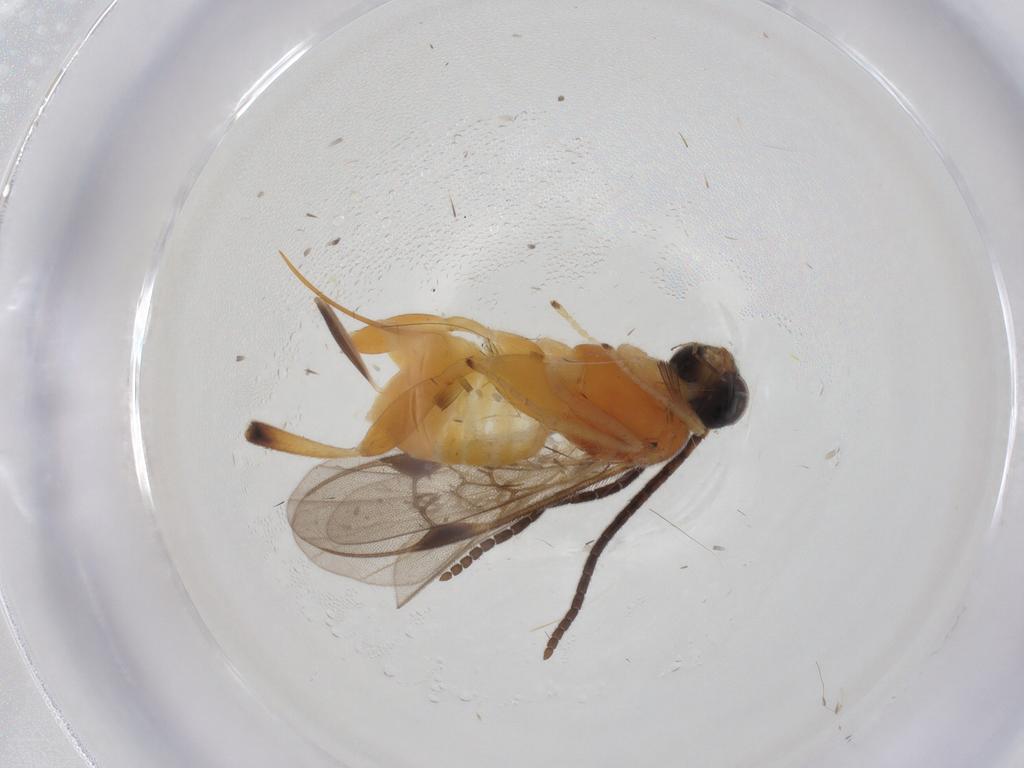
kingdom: Animalia
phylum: Arthropoda
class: Insecta
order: Hymenoptera
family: Braconidae
